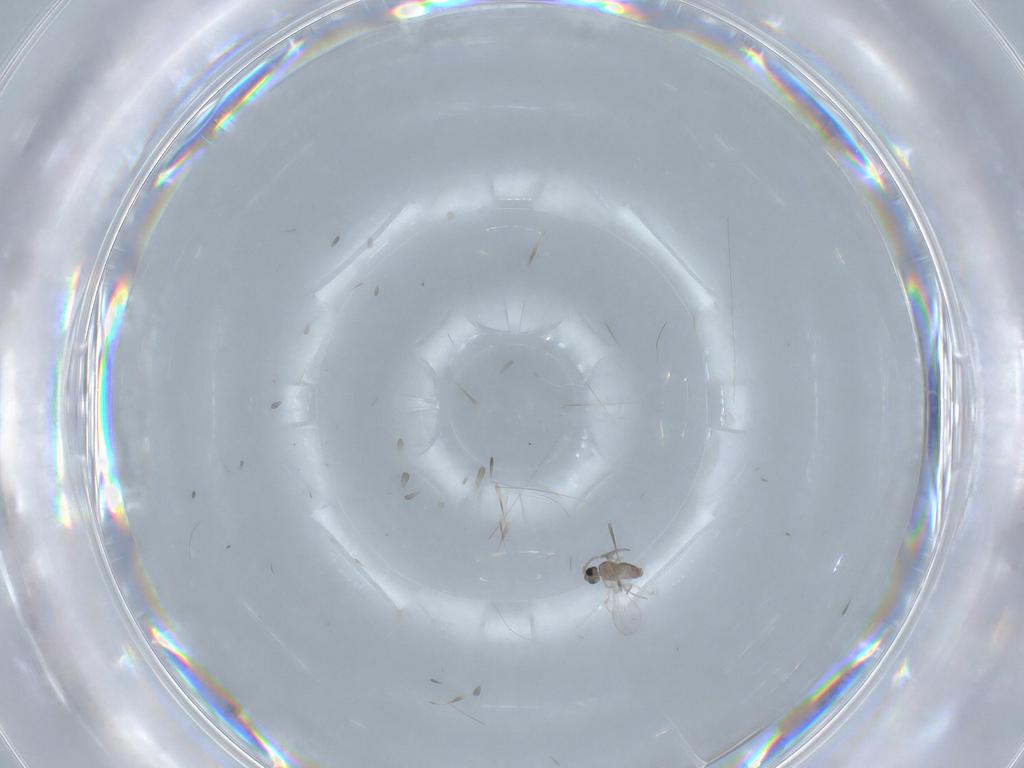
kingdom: Animalia
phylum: Arthropoda
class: Insecta
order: Diptera
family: Cecidomyiidae
